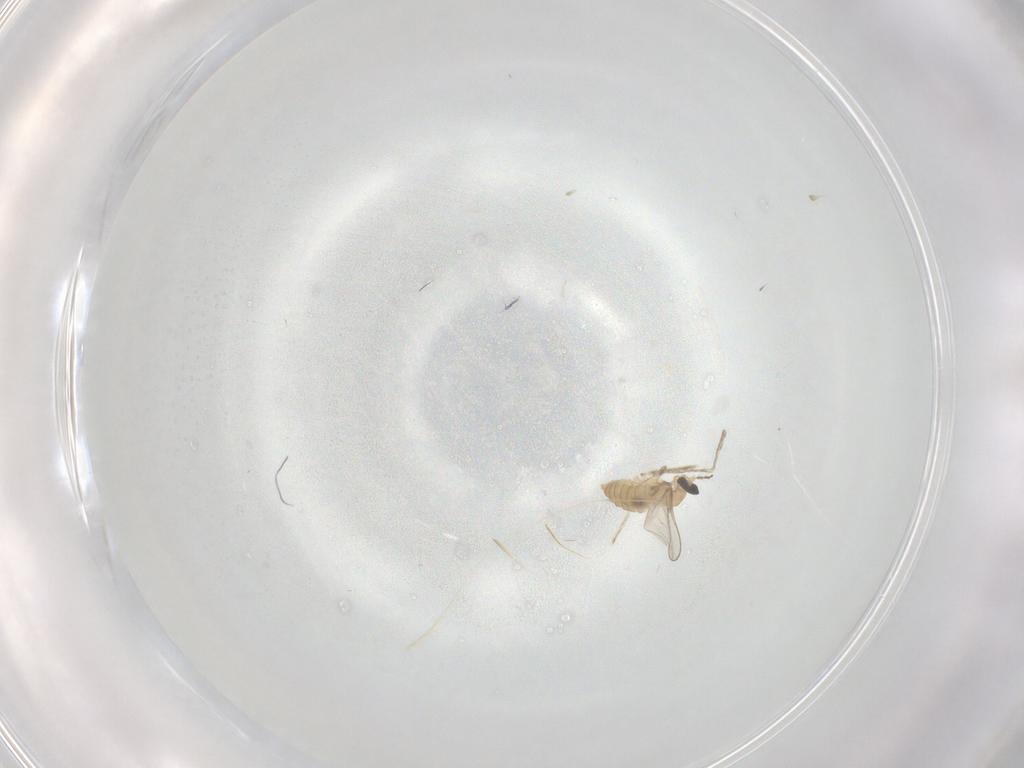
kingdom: Animalia
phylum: Arthropoda
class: Insecta
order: Diptera
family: Cecidomyiidae
